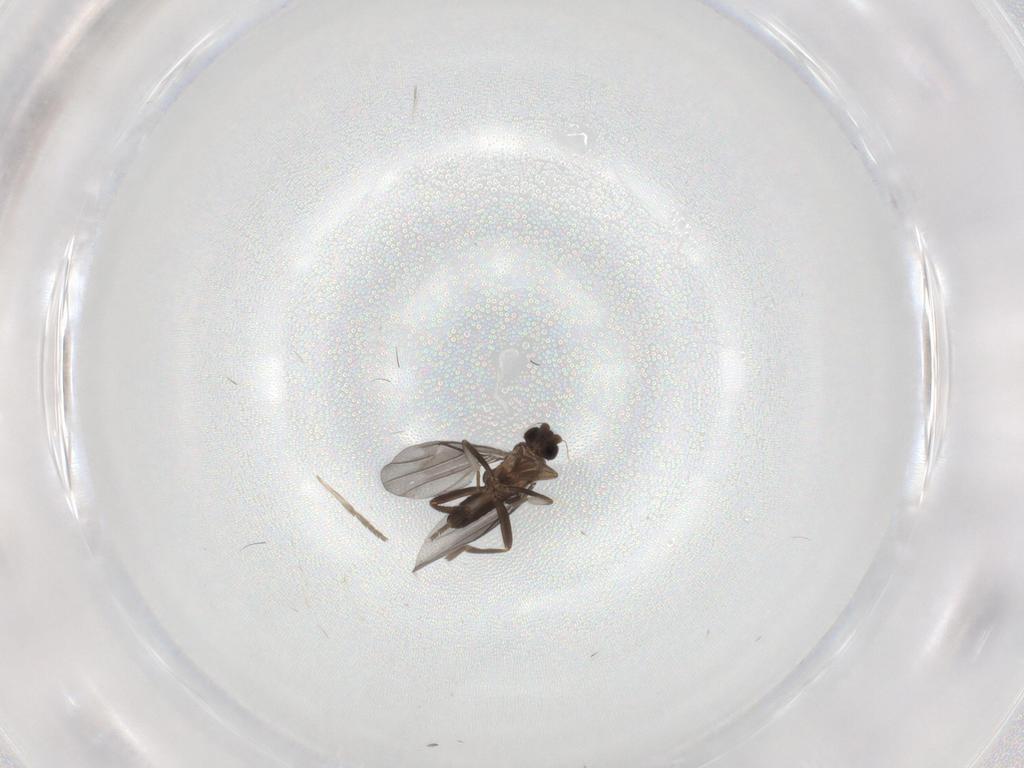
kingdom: Animalia
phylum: Arthropoda
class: Insecta
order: Diptera
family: Psychodidae
